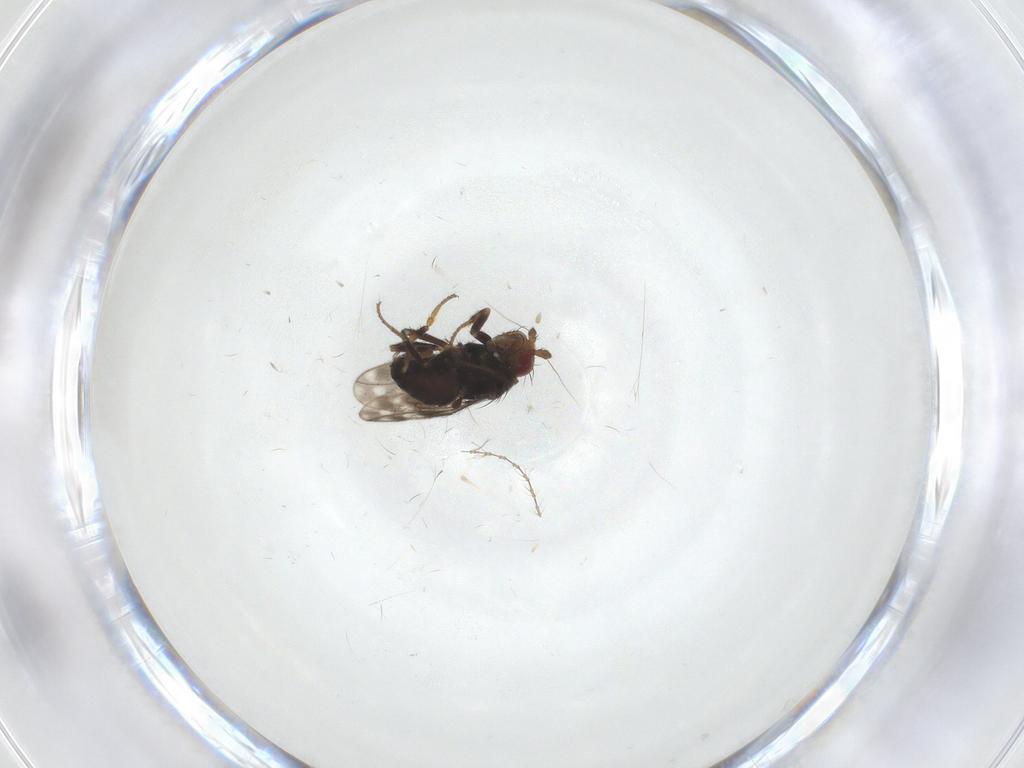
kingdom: Animalia
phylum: Arthropoda
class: Insecta
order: Diptera
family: Sphaeroceridae
